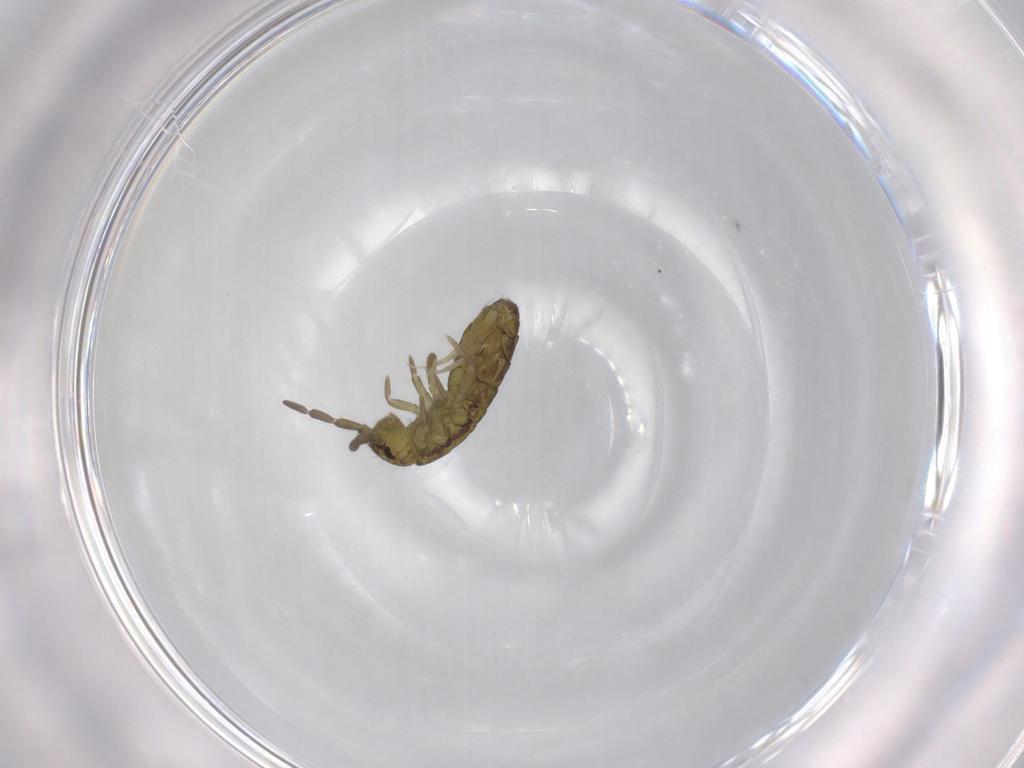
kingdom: Animalia
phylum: Arthropoda
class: Collembola
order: Entomobryomorpha
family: Isotomidae
